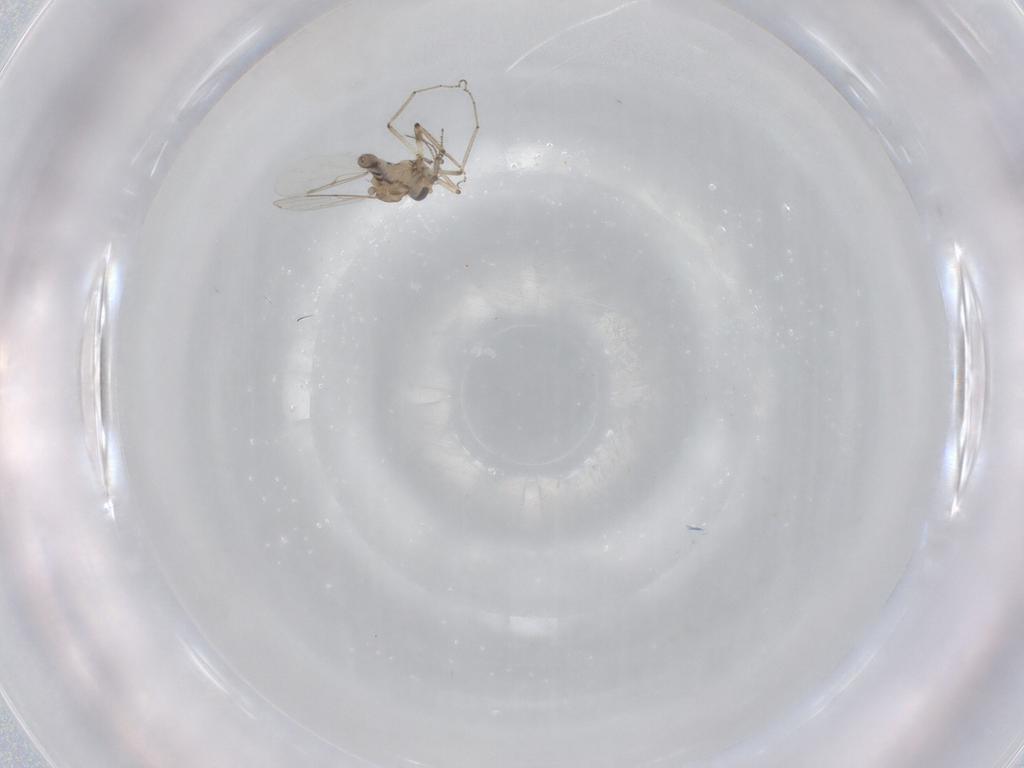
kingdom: Animalia
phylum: Arthropoda
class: Insecta
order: Diptera
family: Ceratopogonidae
